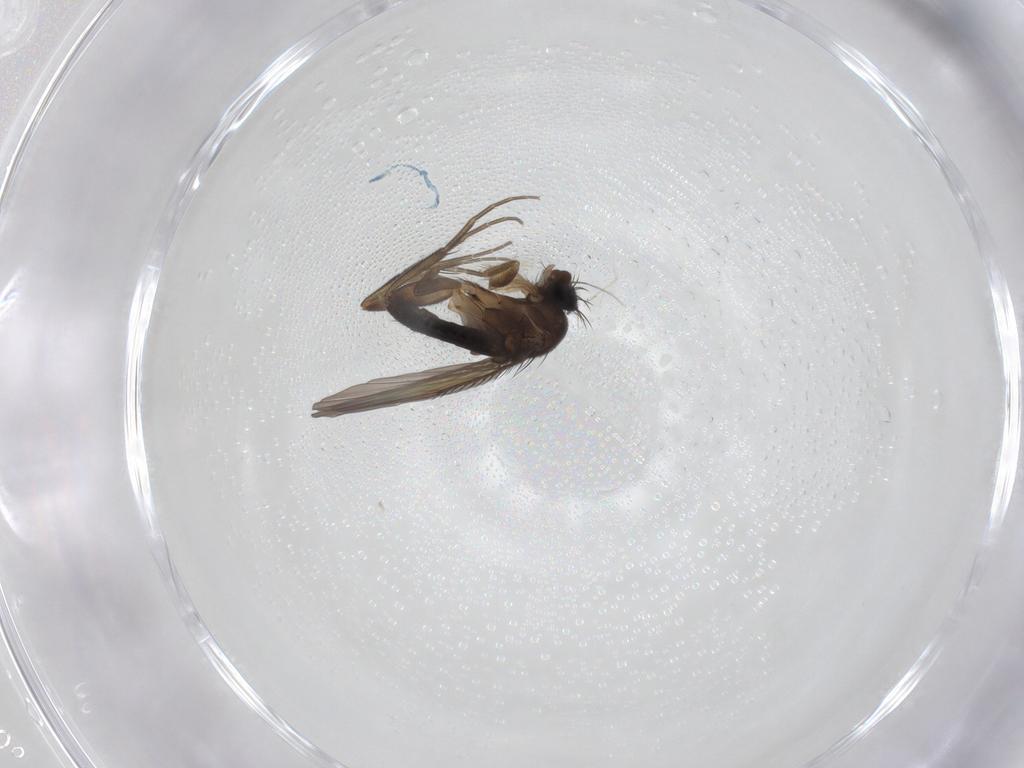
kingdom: Animalia
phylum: Arthropoda
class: Insecta
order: Diptera
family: Phoridae
